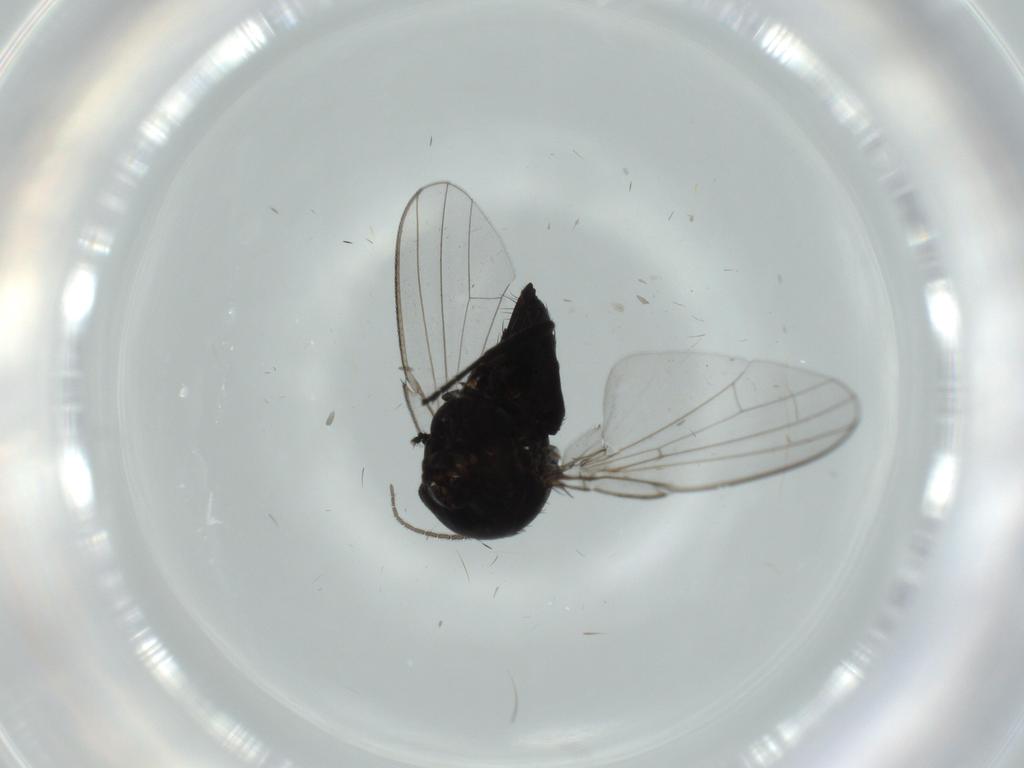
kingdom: Animalia
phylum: Arthropoda
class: Insecta
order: Diptera
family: Milichiidae
